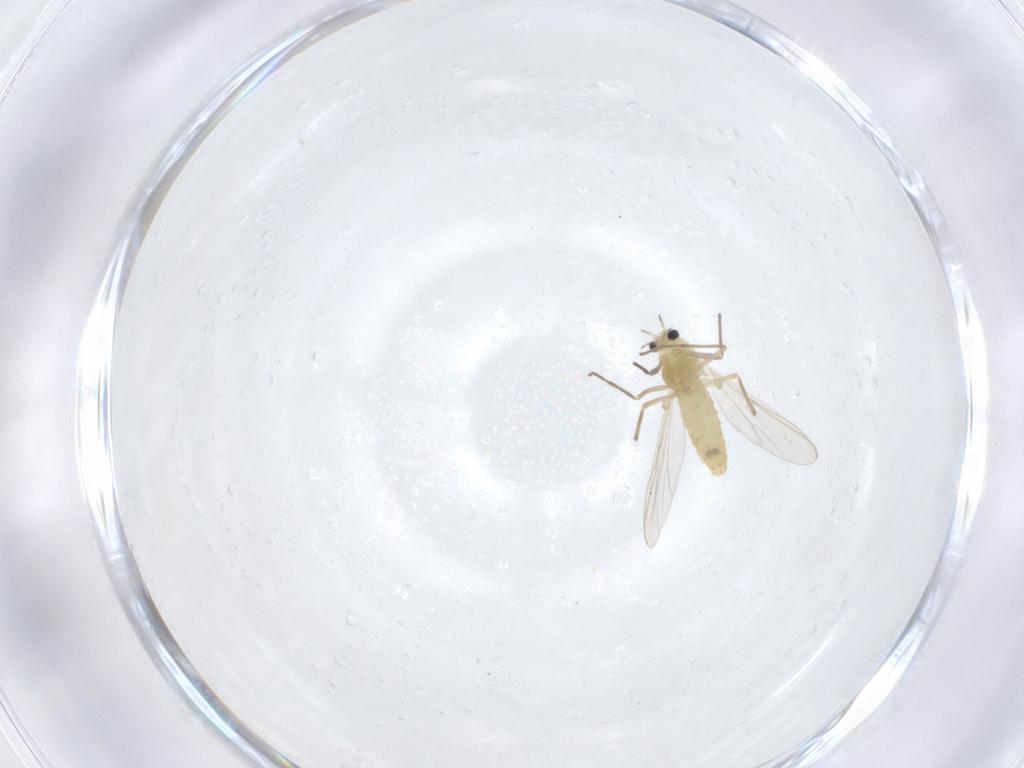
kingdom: Animalia
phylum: Arthropoda
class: Insecta
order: Diptera
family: Chironomidae
